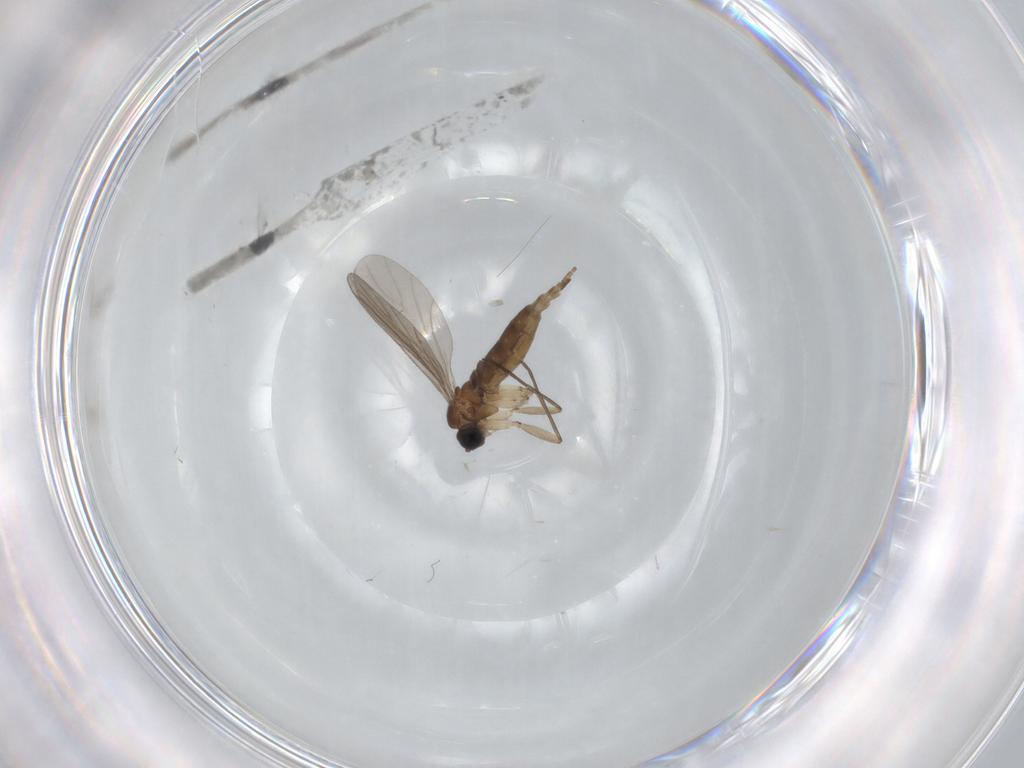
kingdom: Animalia
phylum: Arthropoda
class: Insecta
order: Diptera
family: Sciaridae
